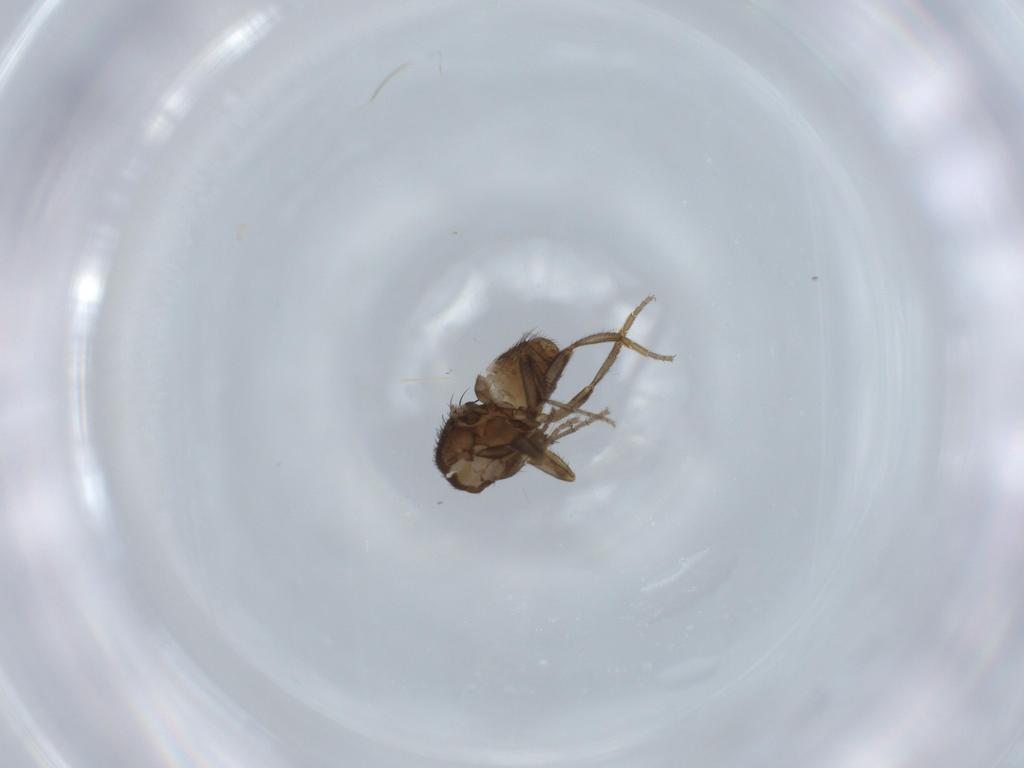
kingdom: Animalia
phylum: Arthropoda
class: Insecta
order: Diptera
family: Sphaeroceridae
